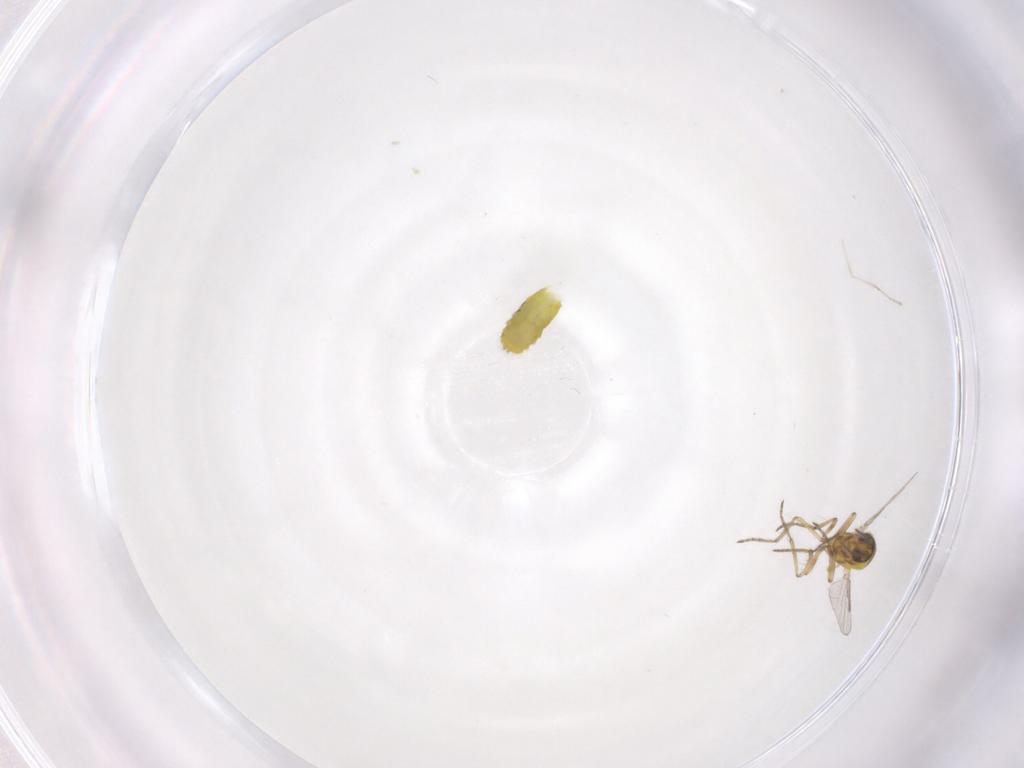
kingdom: Animalia
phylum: Arthropoda
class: Insecta
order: Diptera
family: Ceratopogonidae
